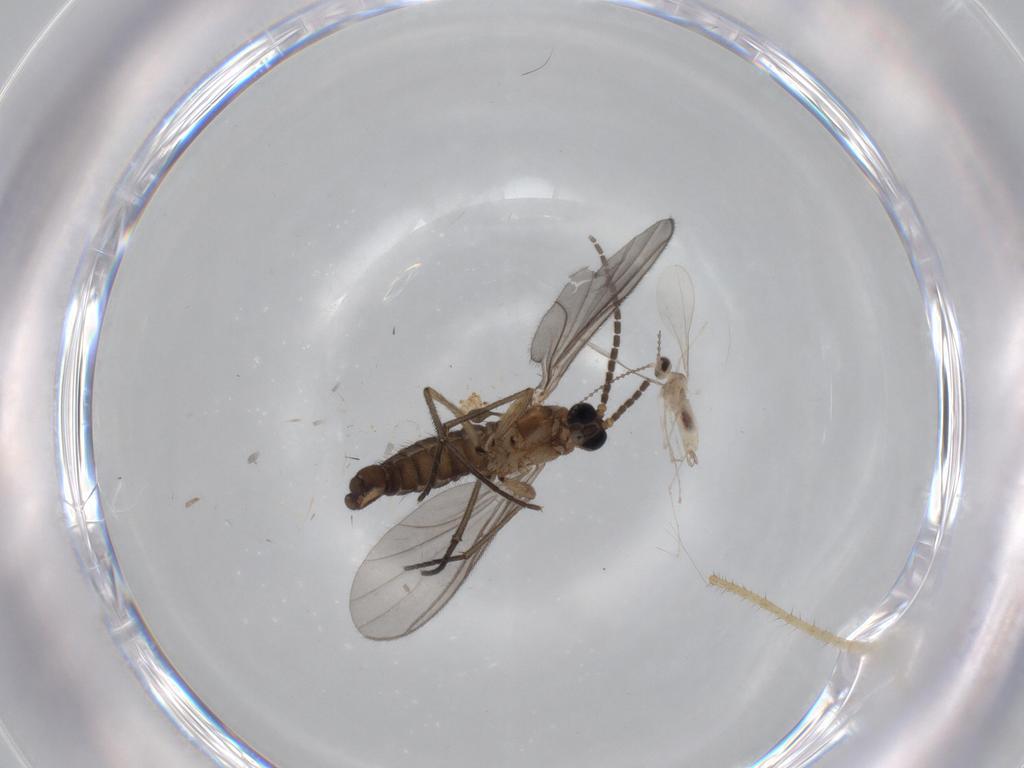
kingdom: Animalia
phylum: Arthropoda
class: Insecta
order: Diptera
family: Sciaridae
